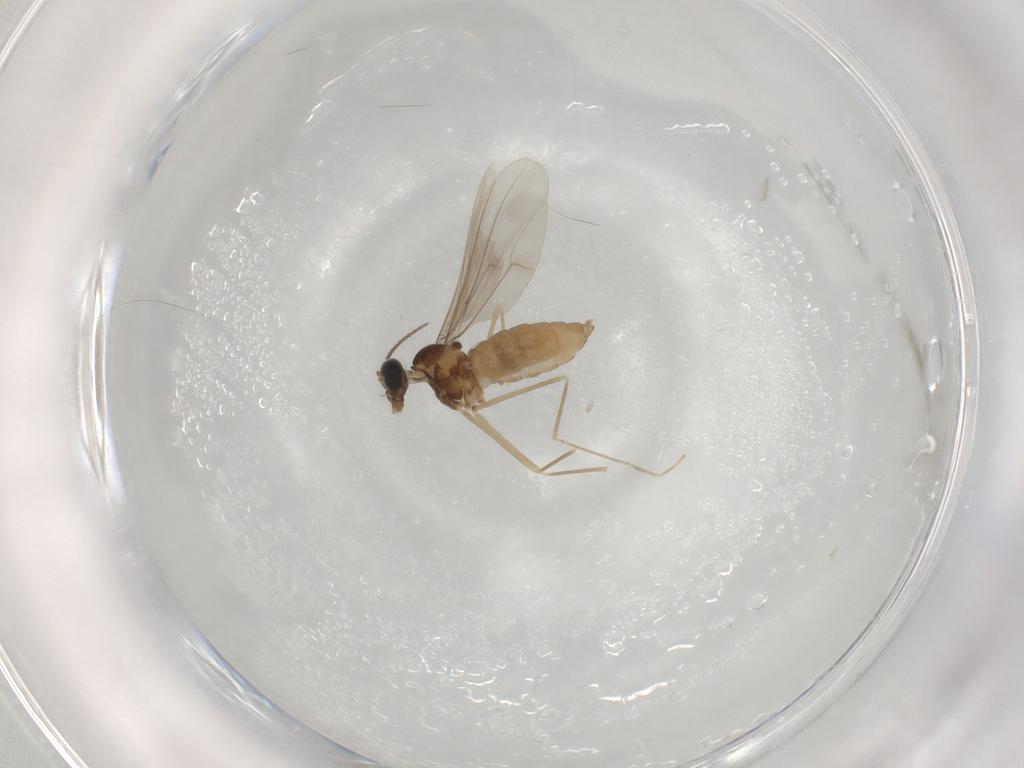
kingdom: Animalia
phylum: Arthropoda
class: Insecta
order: Diptera
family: Cecidomyiidae
